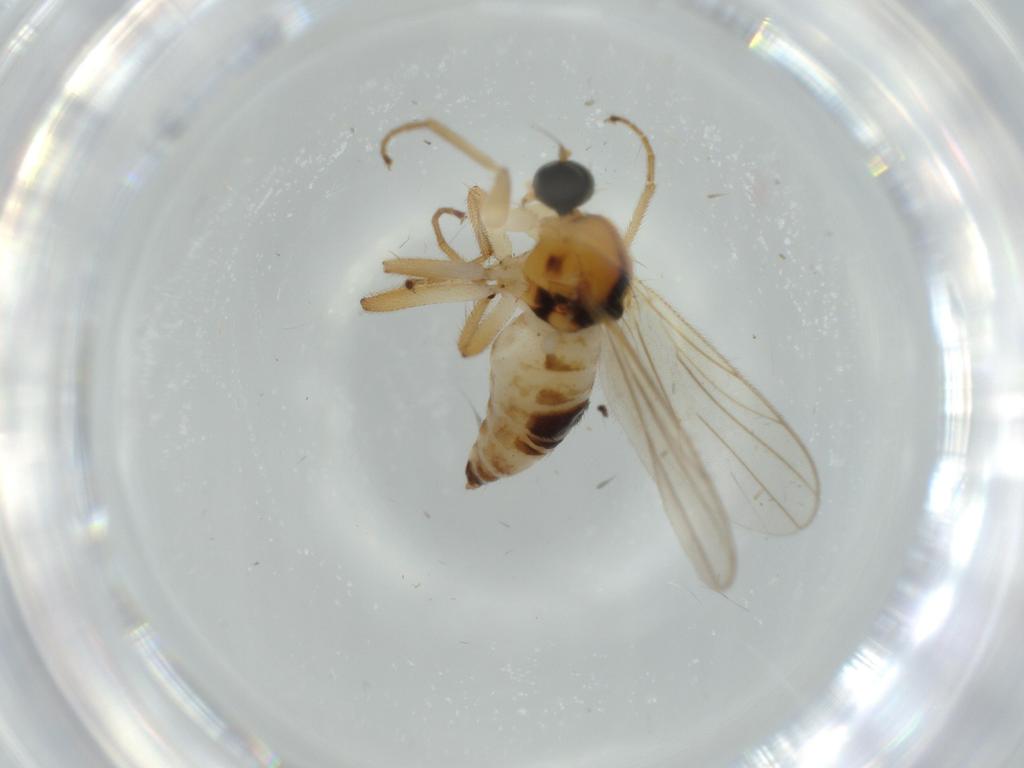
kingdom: Animalia
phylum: Arthropoda
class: Insecta
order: Diptera
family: Hybotidae
